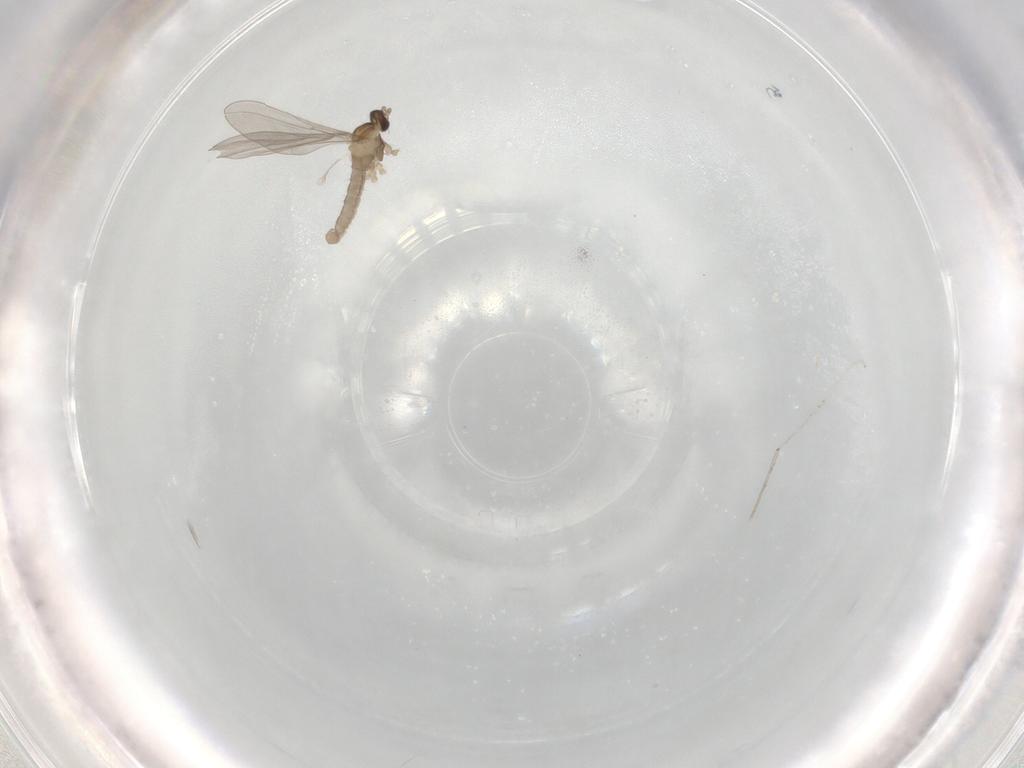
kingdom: Animalia
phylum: Arthropoda
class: Insecta
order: Diptera
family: Cecidomyiidae
